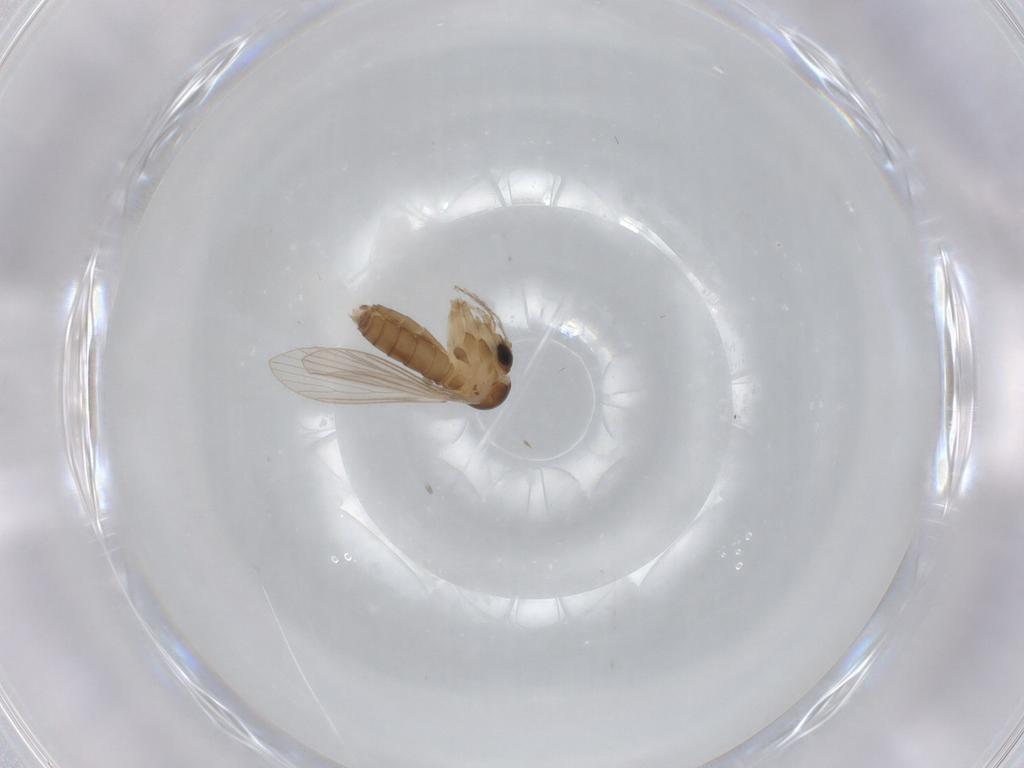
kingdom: Animalia
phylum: Arthropoda
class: Insecta
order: Diptera
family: Psychodidae
